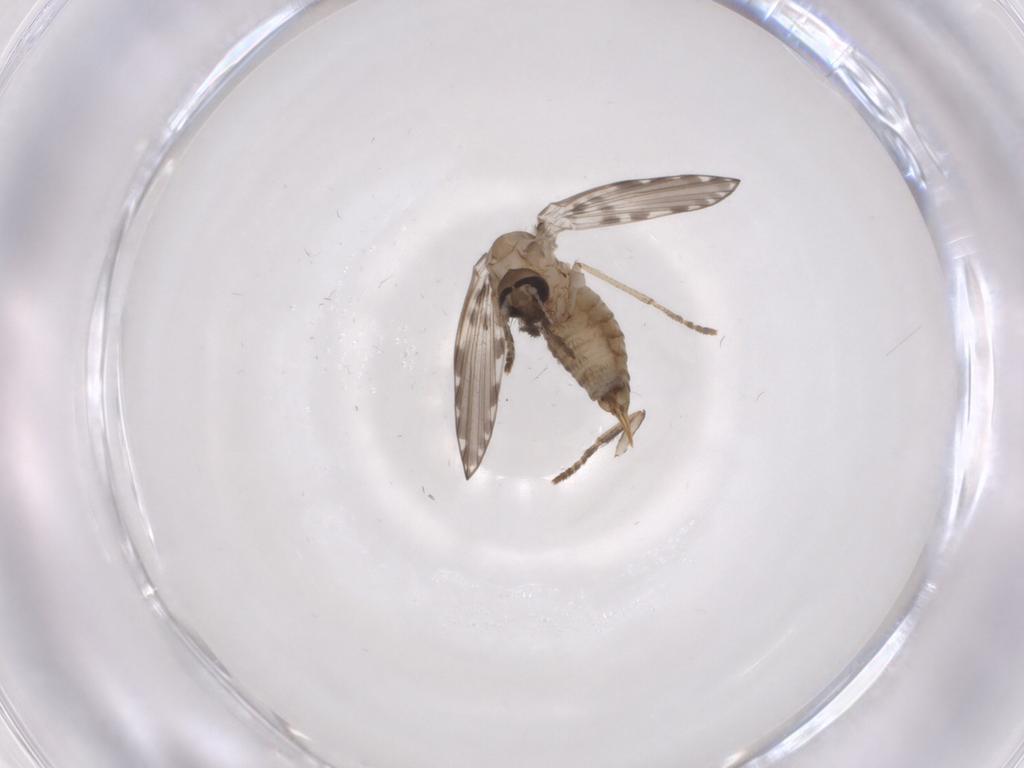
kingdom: Animalia
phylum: Arthropoda
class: Insecta
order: Diptera
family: Psychodidae
